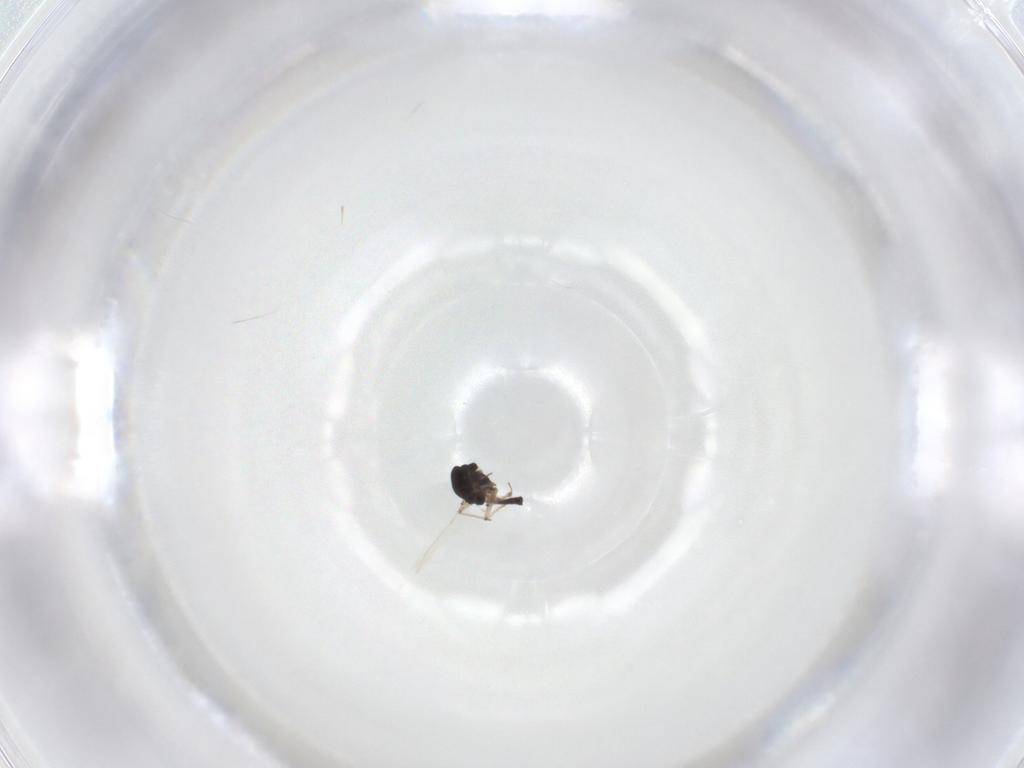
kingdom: Animalia
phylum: Arthropoda
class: Insecta
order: Diptera
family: Chironomidae
